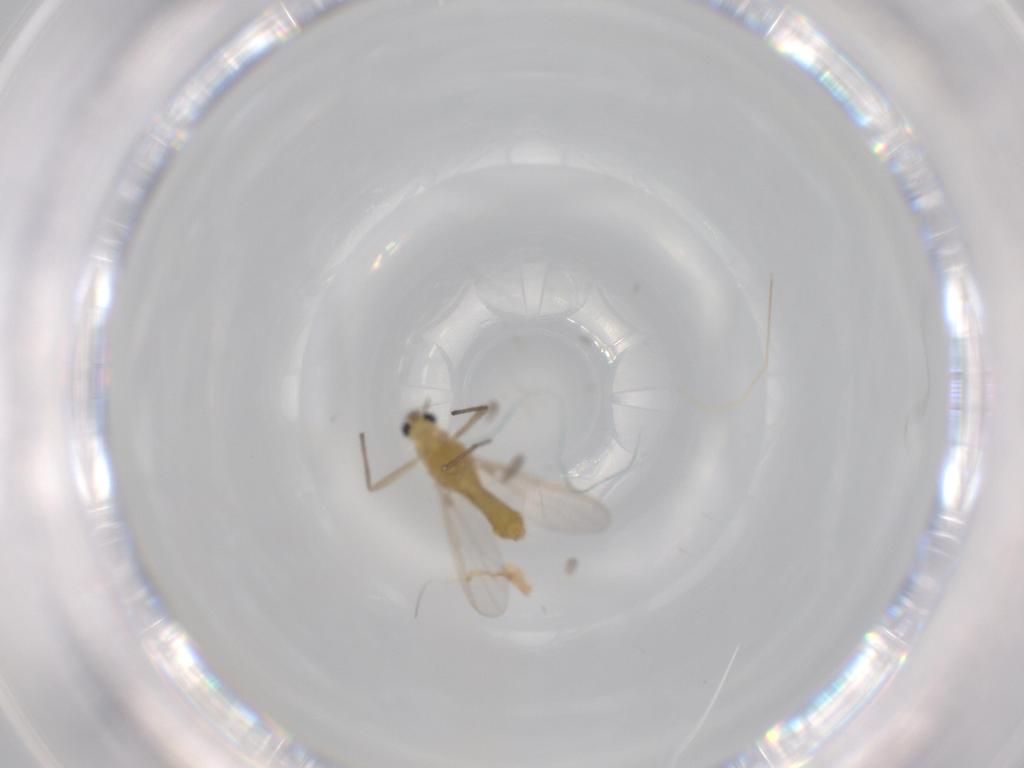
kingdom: Animalia
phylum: Arthropoda
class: Insecta
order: Diptera
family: Chironomidae
